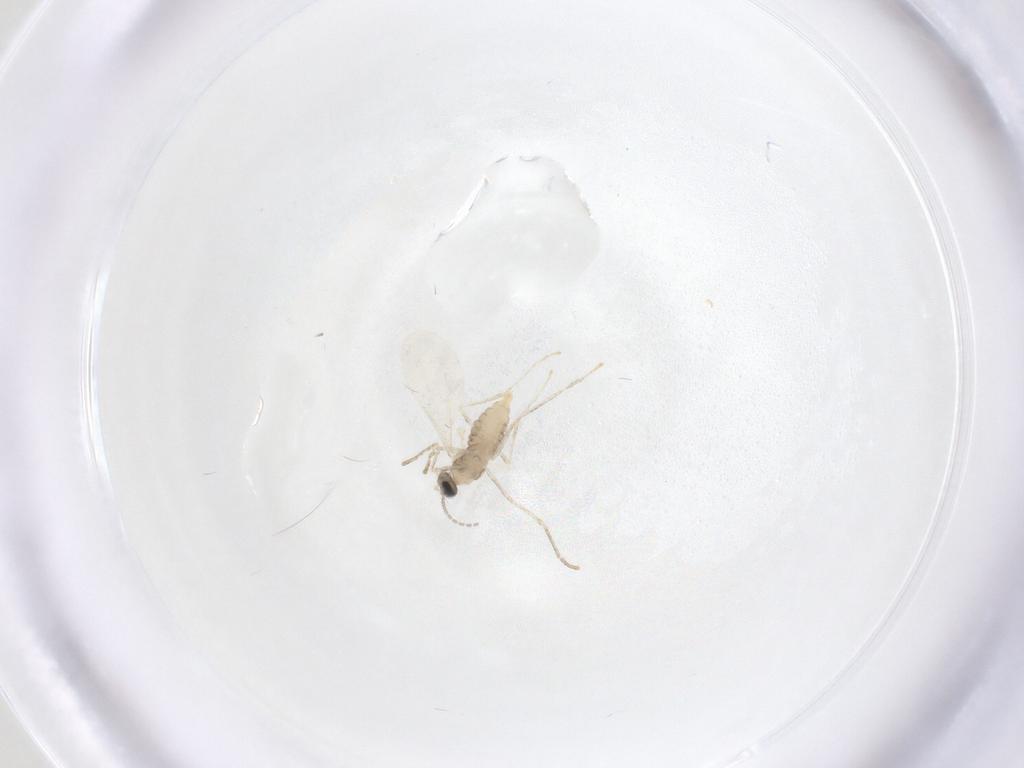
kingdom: Animalia
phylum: Arthropoda
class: Insecta
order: Diptera
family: Cecidomyiidae
